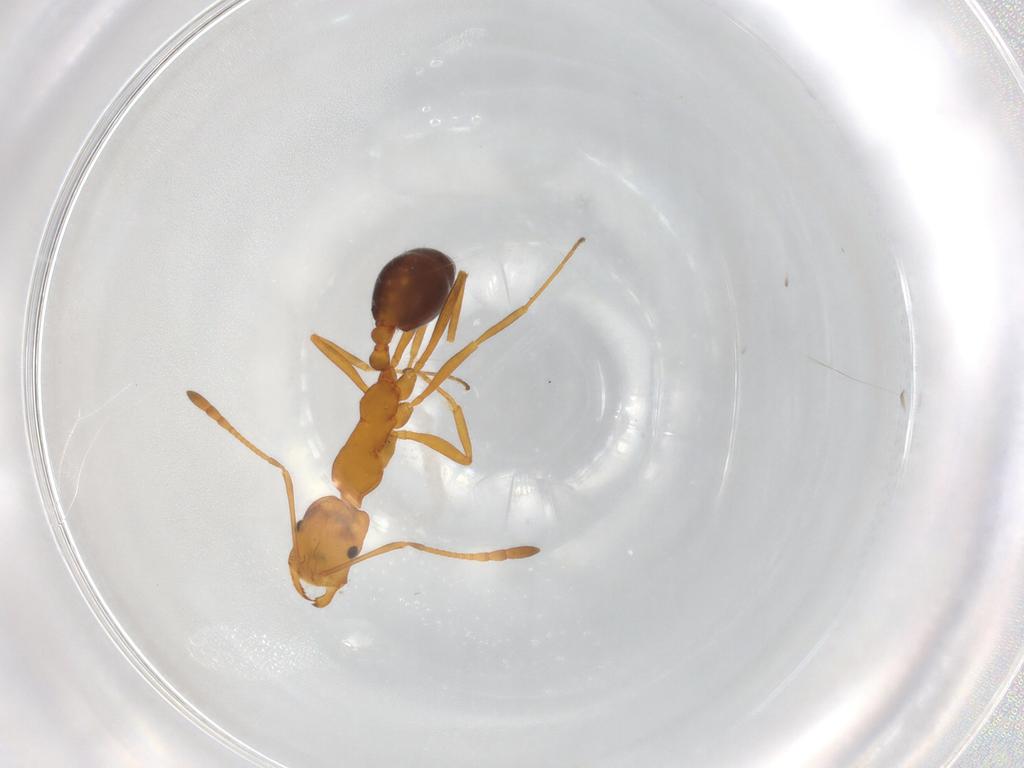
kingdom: Animalia
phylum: Arthropoda
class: Insecta
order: Hymenoptera
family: Formicidae
